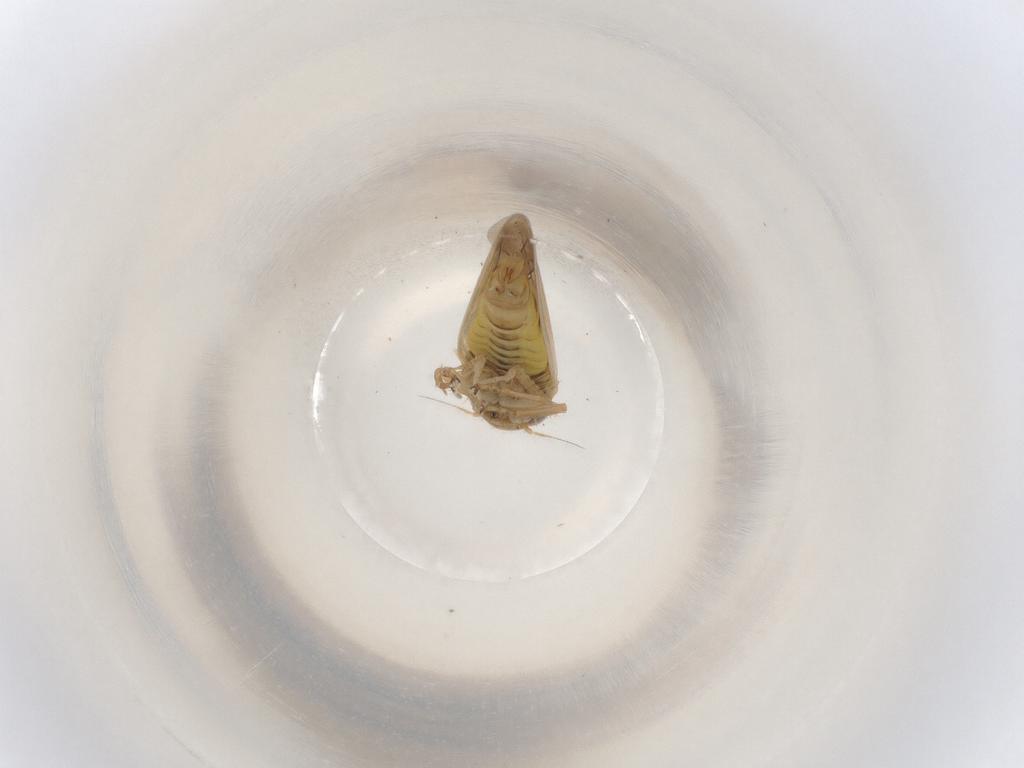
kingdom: Animalia
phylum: Arthropoda
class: Insecta
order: Hemiptera
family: Cicadellidae
